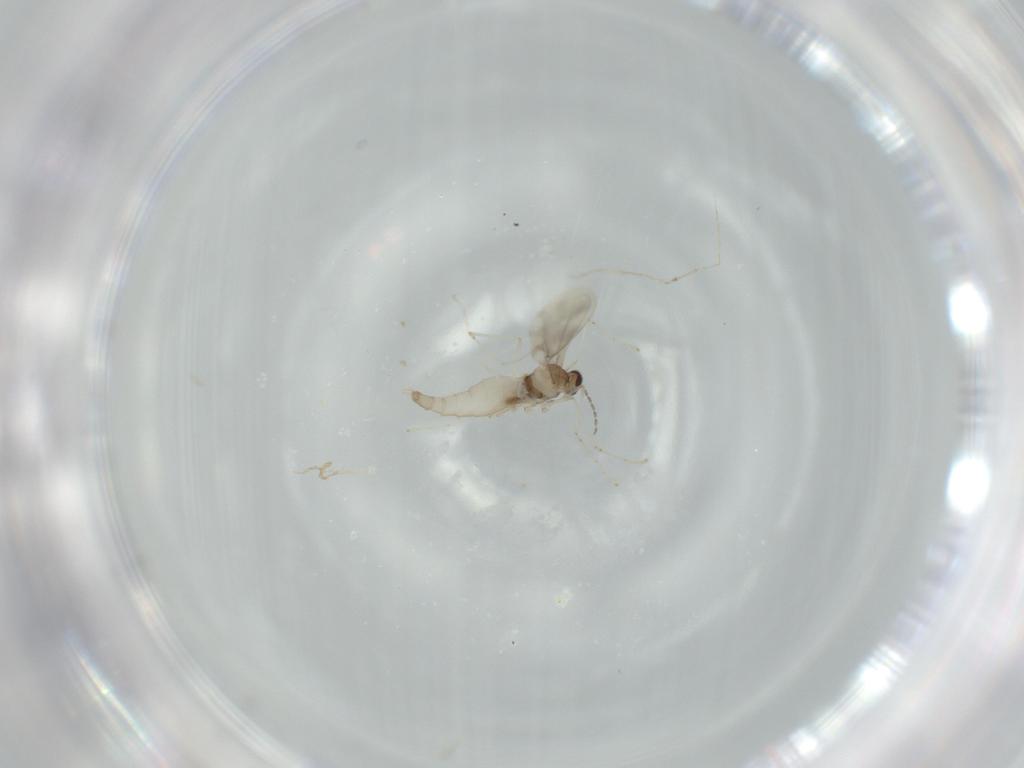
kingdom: Animalia
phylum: Arthropoda
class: Insecta
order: Diptera
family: Cecidomyiidae
